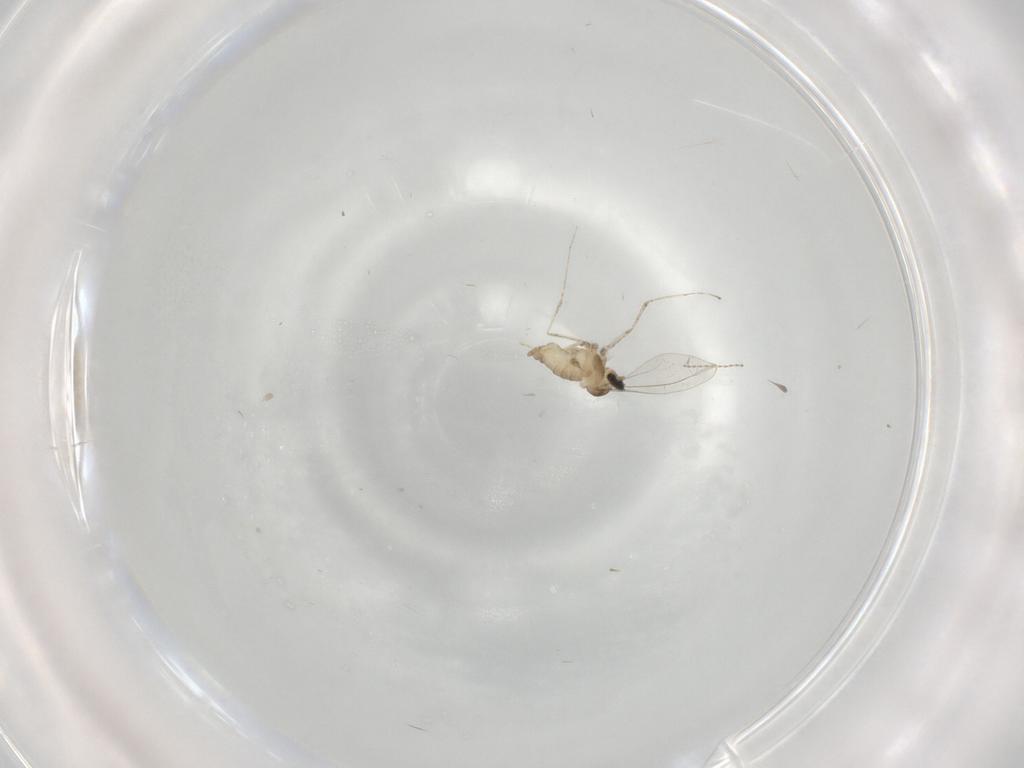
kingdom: Animalia
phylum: Arthropoda
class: Insecta
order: Diptera
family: Cecidomyiidae
